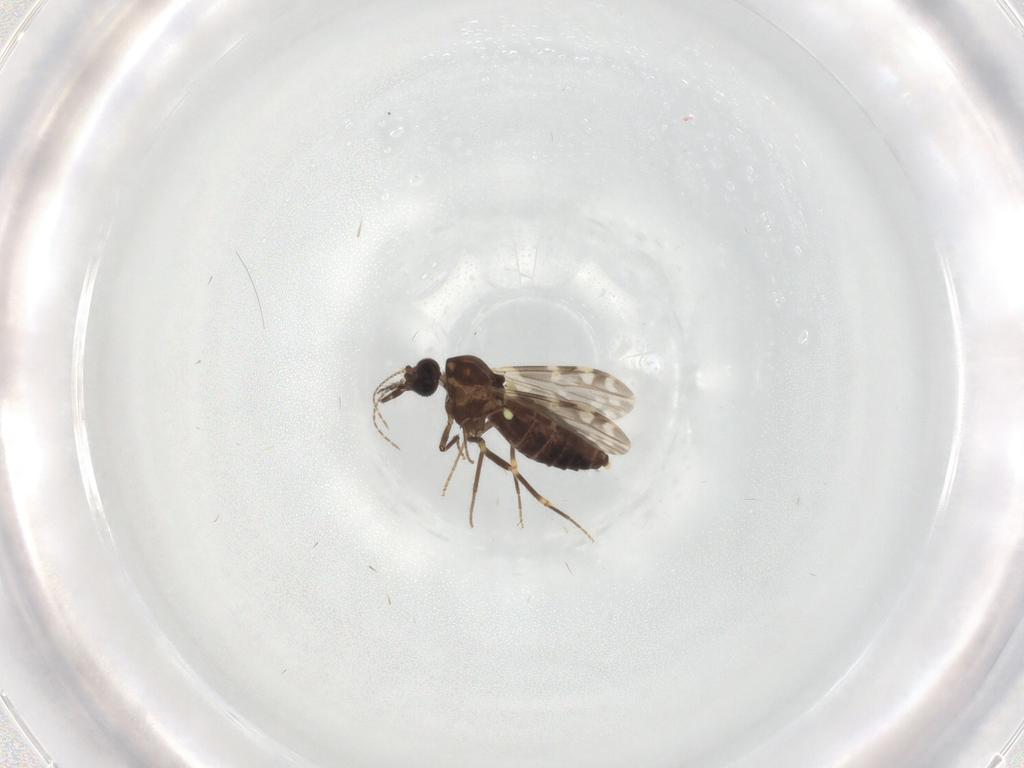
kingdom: Animalia
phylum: Arthropoda
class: Insecta
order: Diptera
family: Ceratopogonidae
